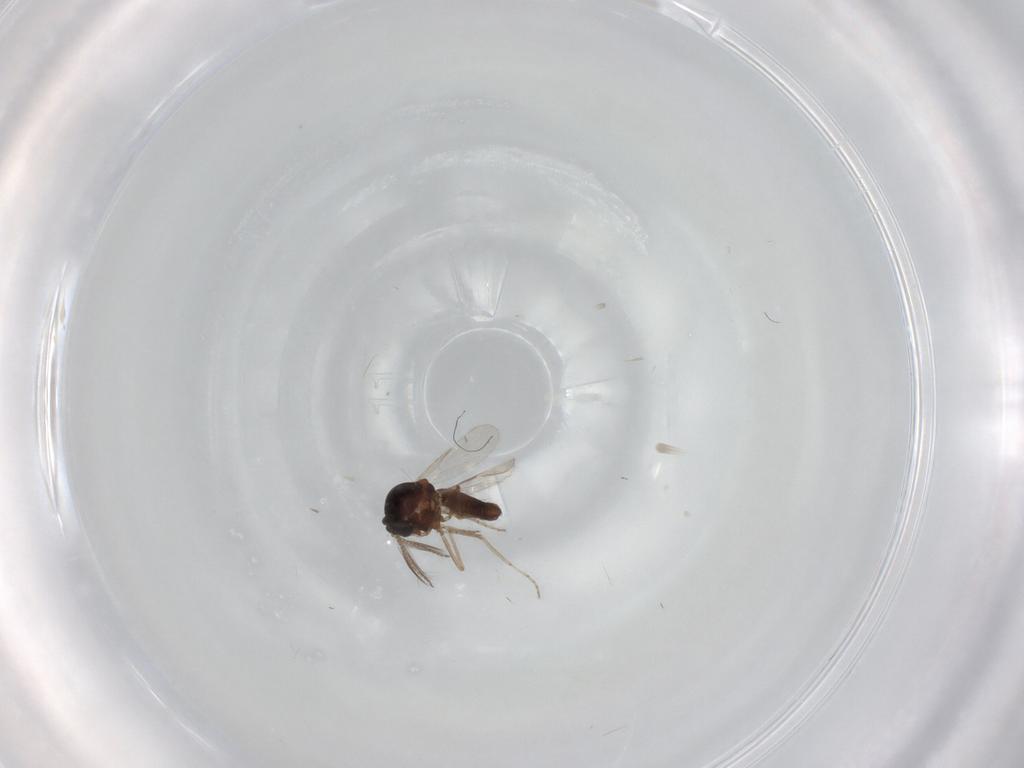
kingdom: Animalia
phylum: Arthropoda
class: Insecta
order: Diptera
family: Ceratopogonidae
